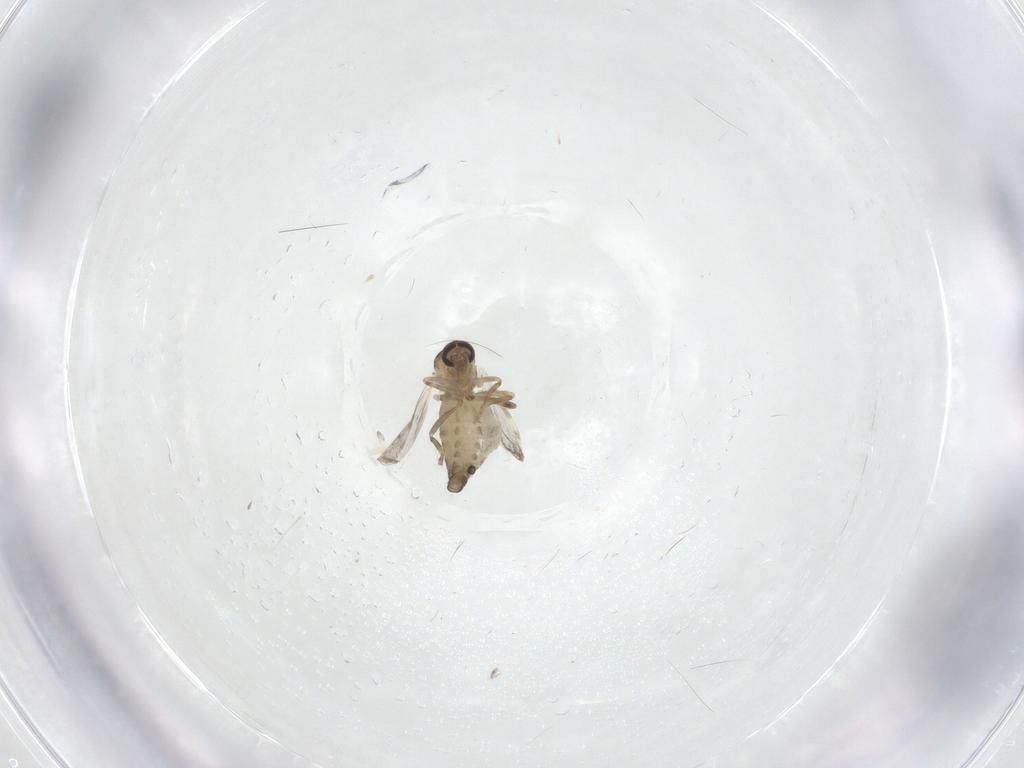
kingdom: Animalia
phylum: Arthropoda
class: Insecta
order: Diptera
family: Ceratopogonidae
